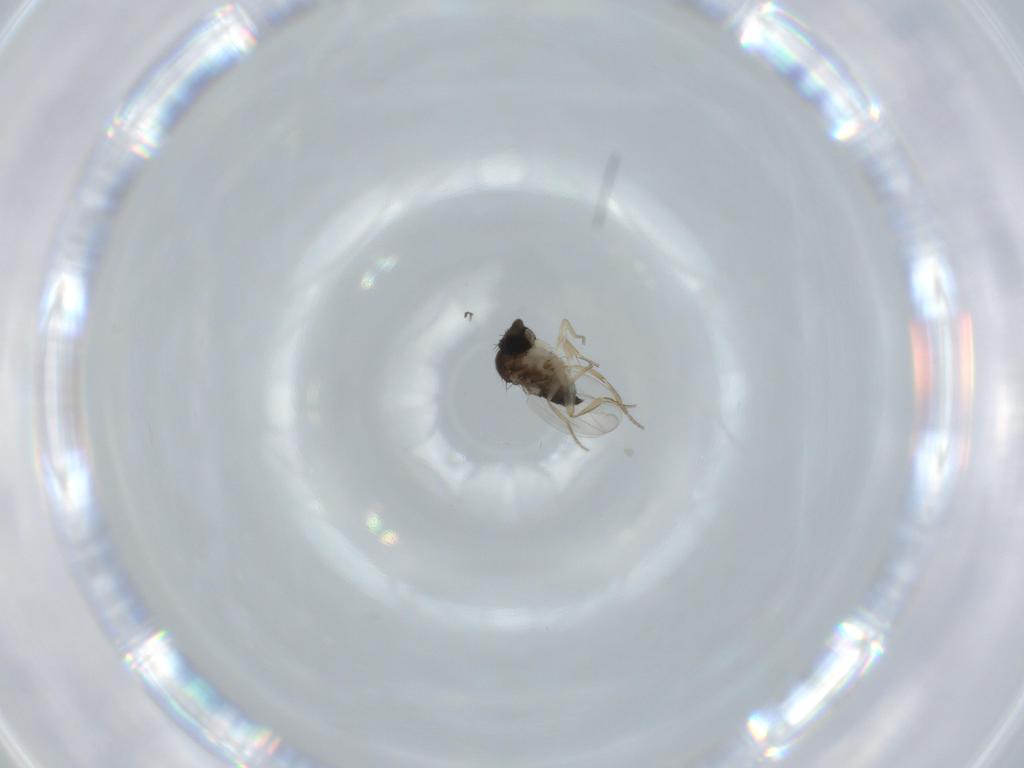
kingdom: Animalia
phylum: Arthropoda
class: Insecta
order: Diptera
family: Phoridae
